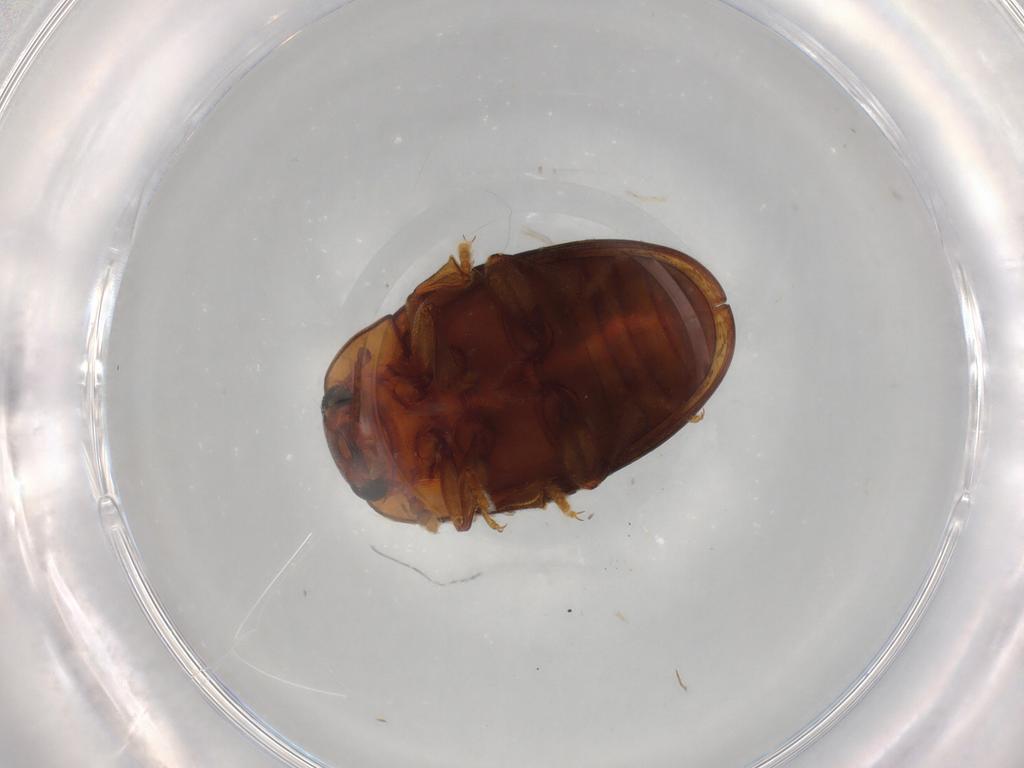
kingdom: Animalia
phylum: Arthropoda
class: Insecta
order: Coleoptera
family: Erotylidae
